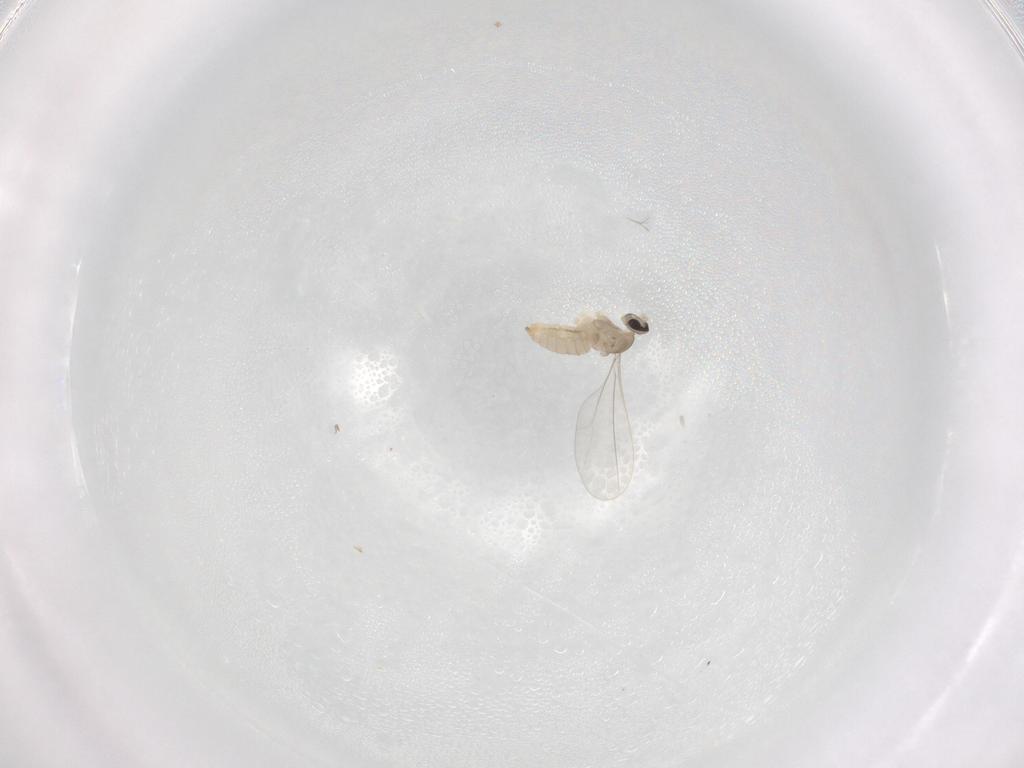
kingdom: Animalia
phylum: Arthropoda
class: Insecta
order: Diptera
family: Cecidomyiidae
